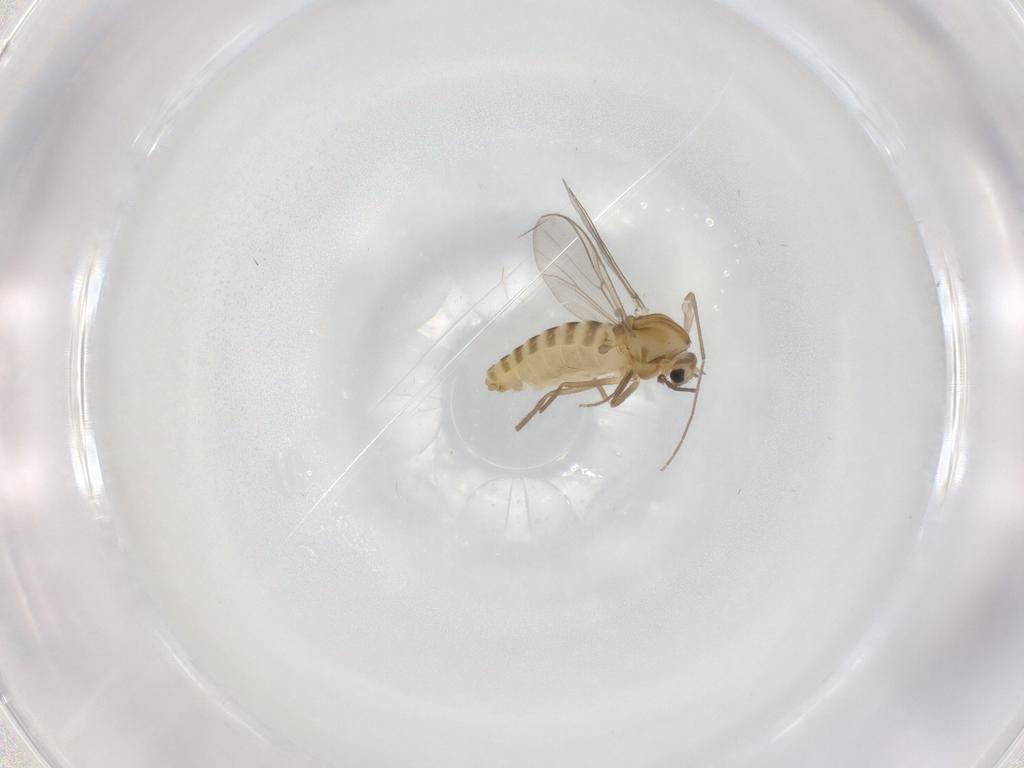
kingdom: Animalia
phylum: Arthropoda
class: Insecta
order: Diptera
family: Chironomidae
